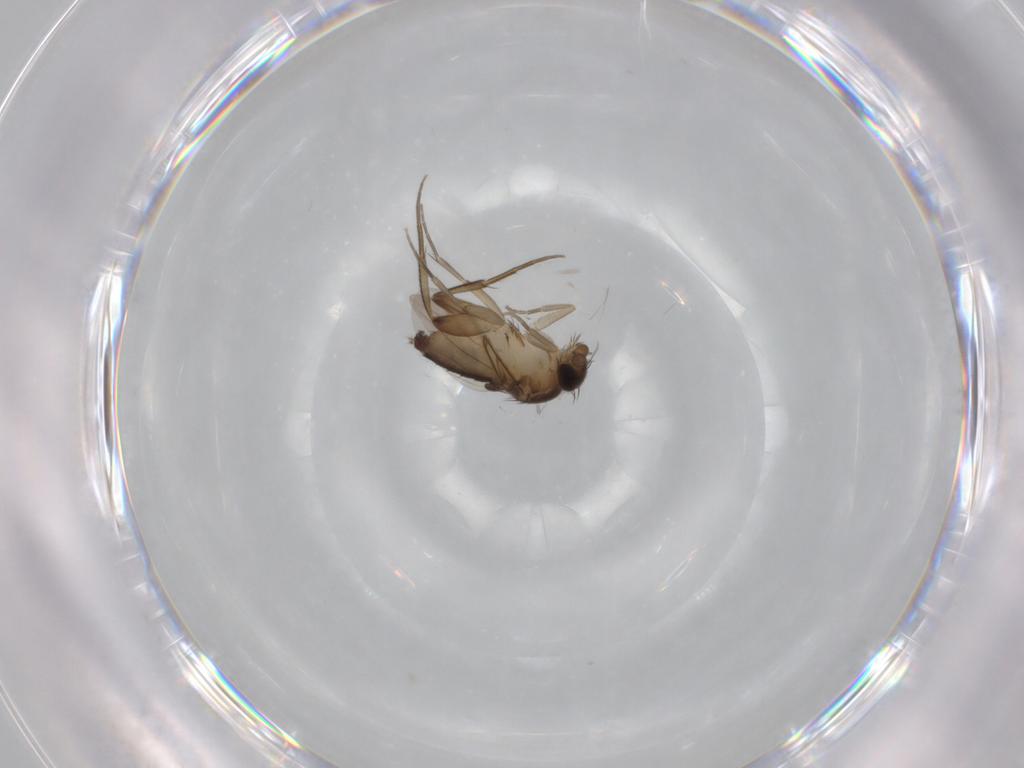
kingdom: Animalia
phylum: Arthropoda
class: Insecta
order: Diptera
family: Phoridae
